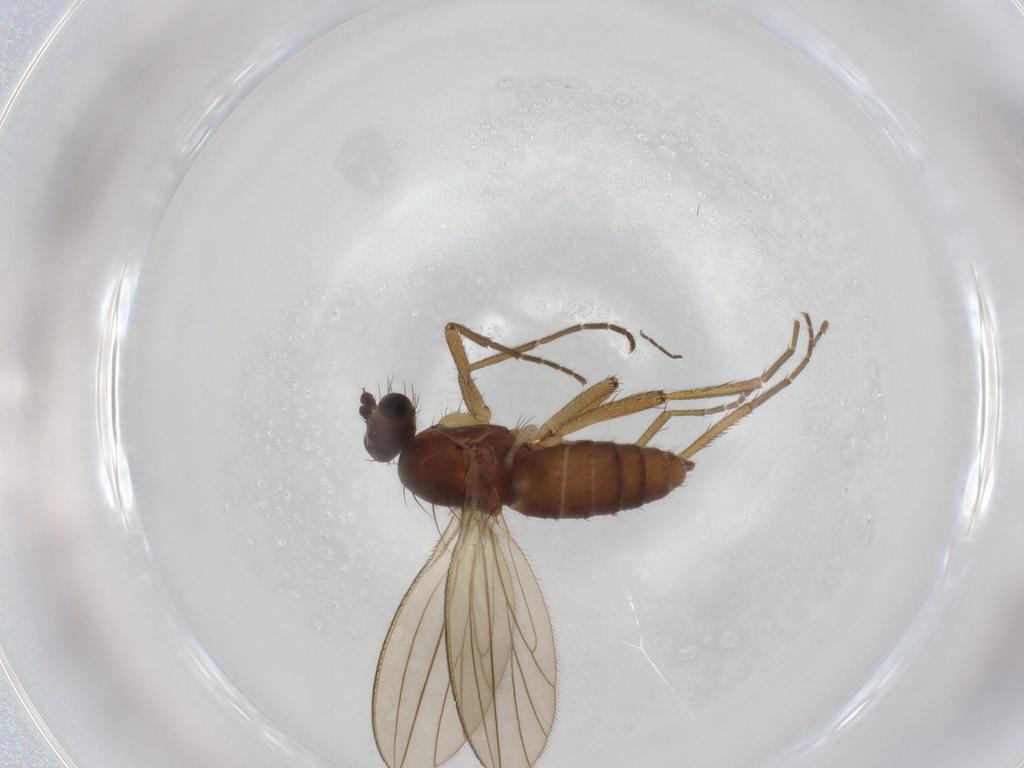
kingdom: Animalia
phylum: Arthropoda
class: Insecta
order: Diptera
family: Lonchopteridae
